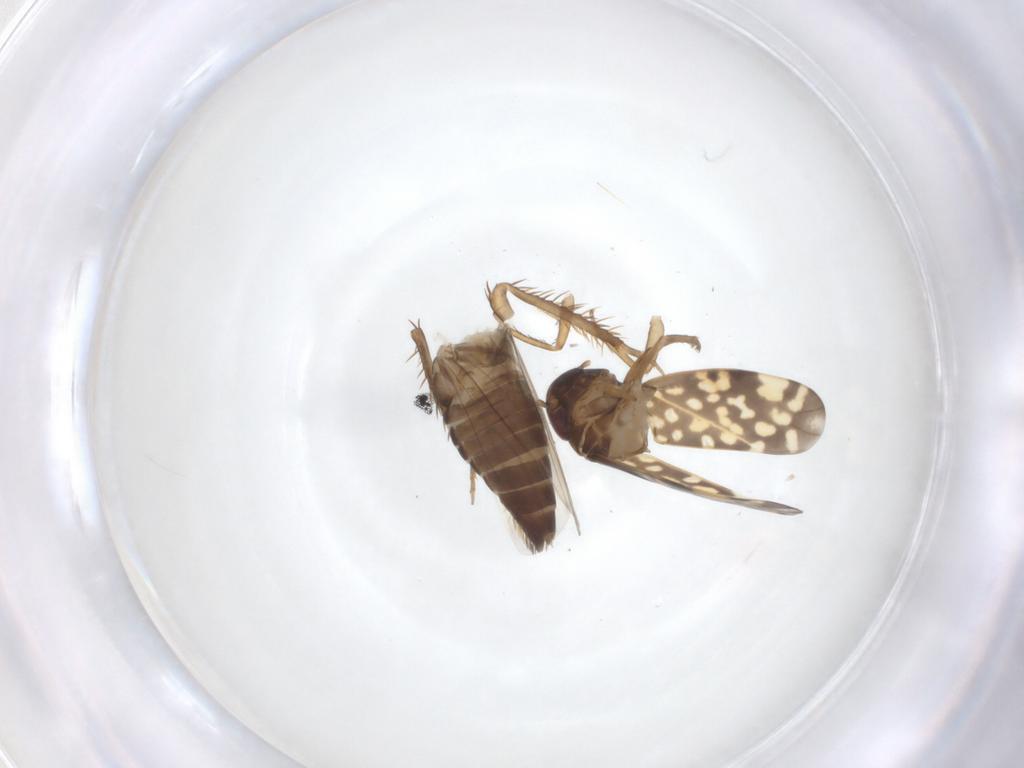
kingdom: Animalia
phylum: Arthropoda
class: Insecta
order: Hemiptera
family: Cicadellidae
